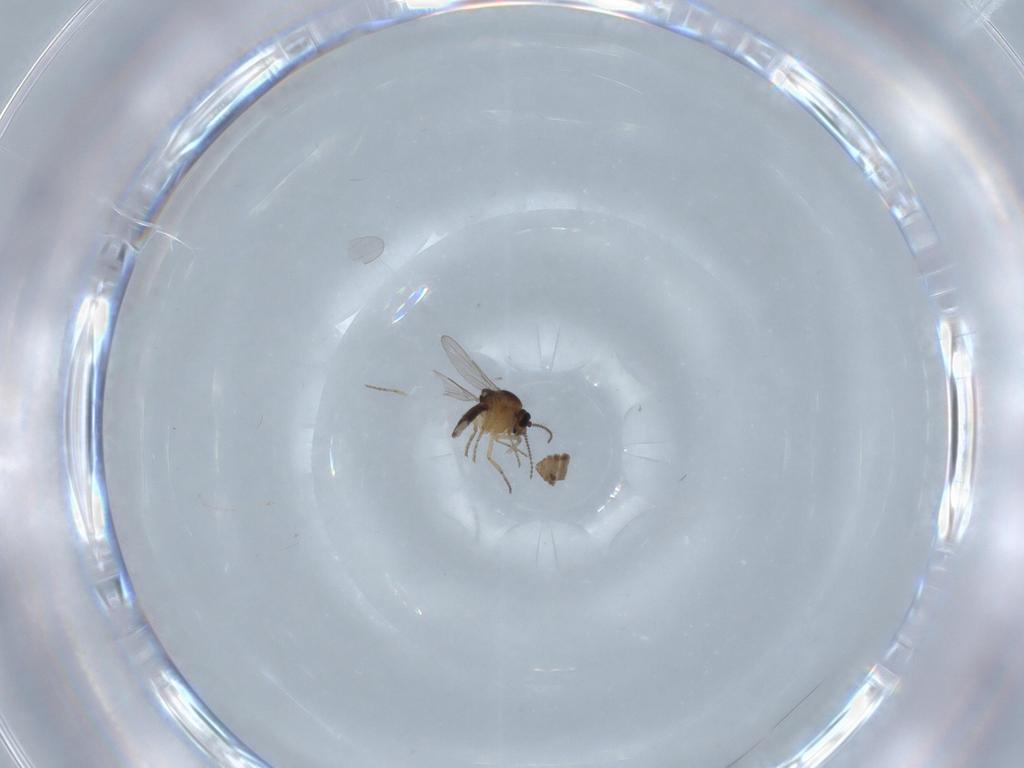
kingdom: Animalia
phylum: Arthropoda
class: Insecta
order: Diptera
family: Ceratopogonidae
